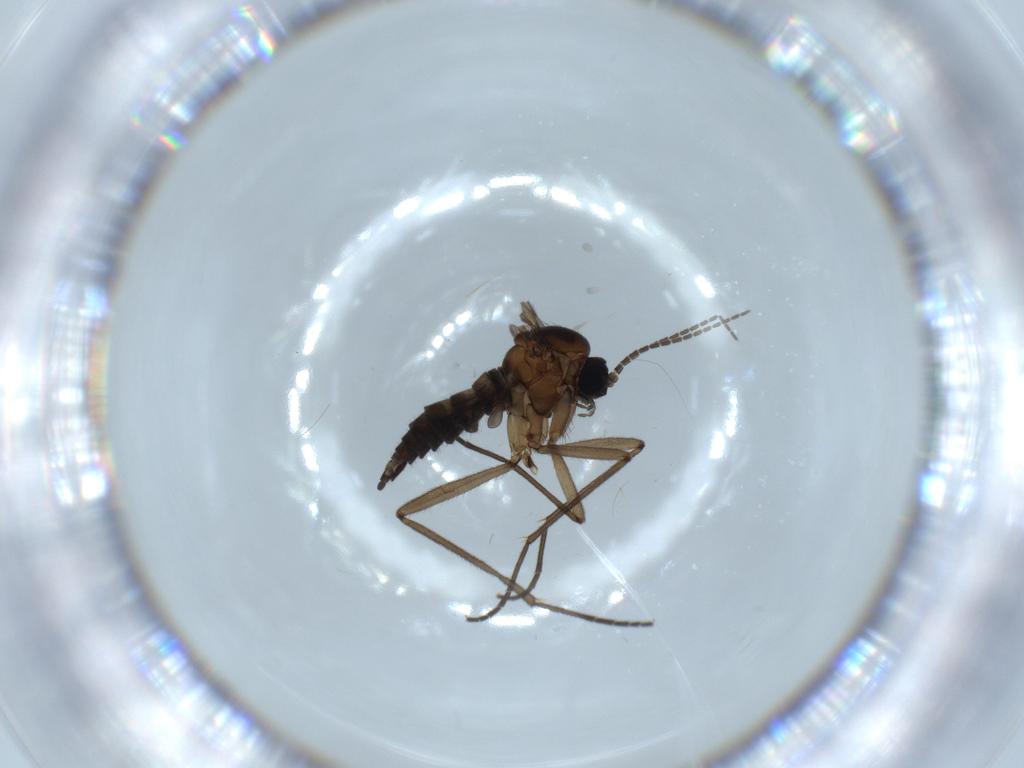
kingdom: Animalia
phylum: Arthropoda
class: Insecta
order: Diptera
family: Sciaridae
